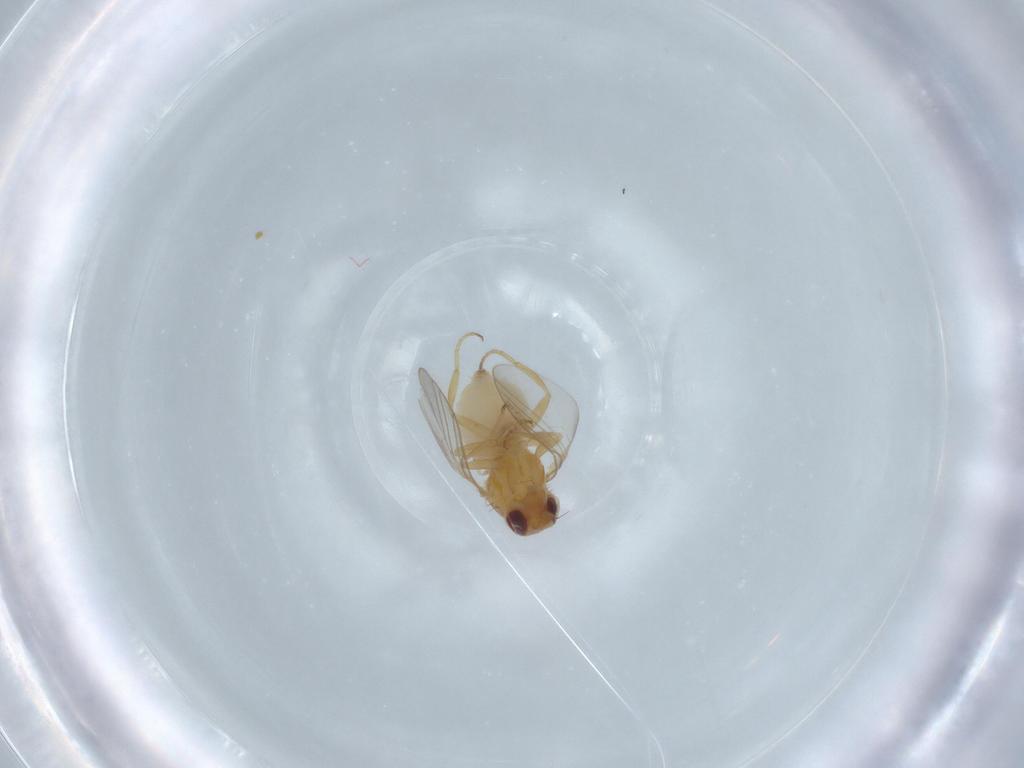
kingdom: Animalia
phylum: Arthropoda
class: Insecta
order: Diptera
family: Chloropidae
